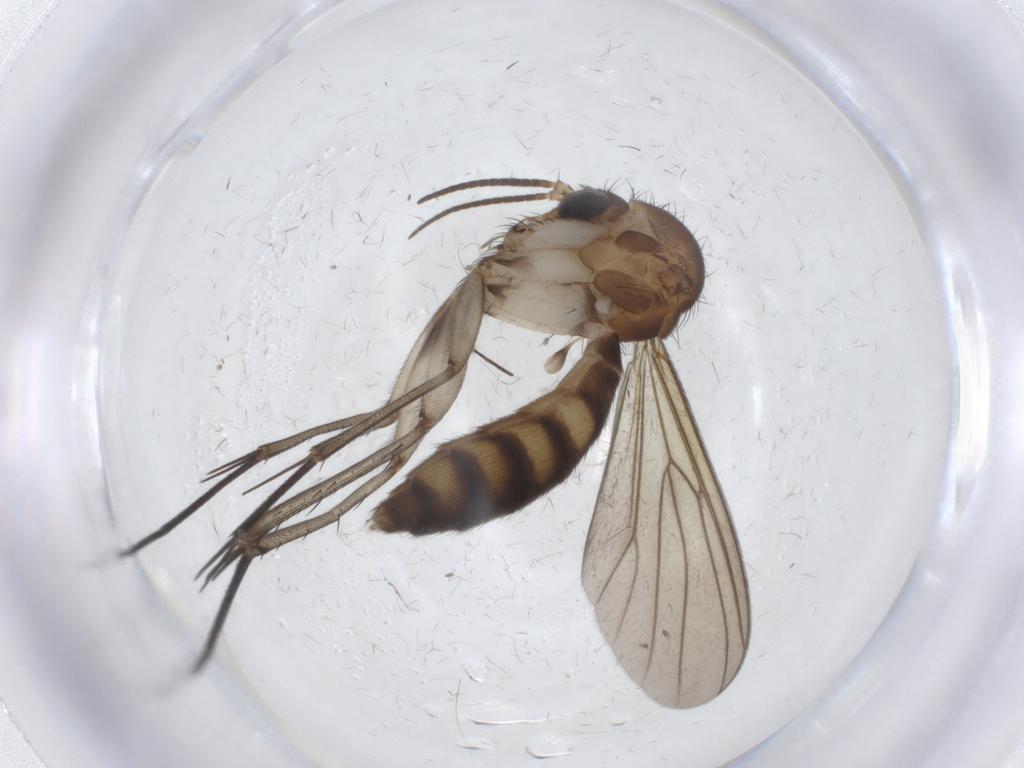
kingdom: Animalia
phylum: Arthropoda
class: Insecta
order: Diptera
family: Mycetophilidae
